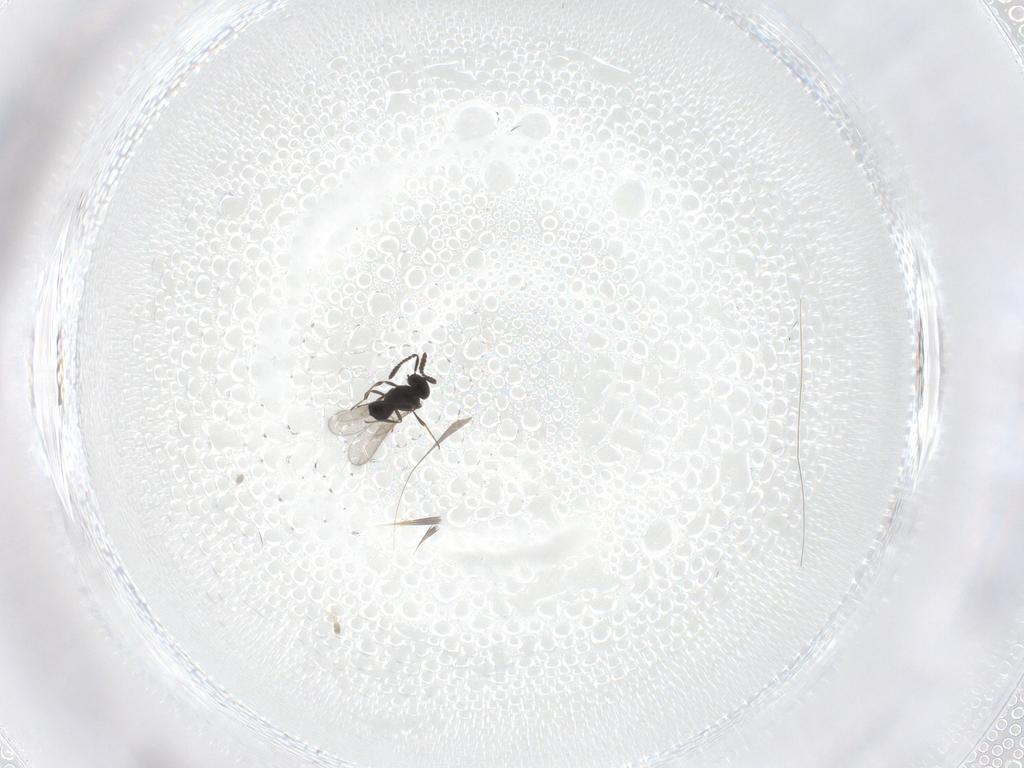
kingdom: Animalia
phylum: Arthropoda
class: Insecta
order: Hymenoptera
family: Scelionidae
